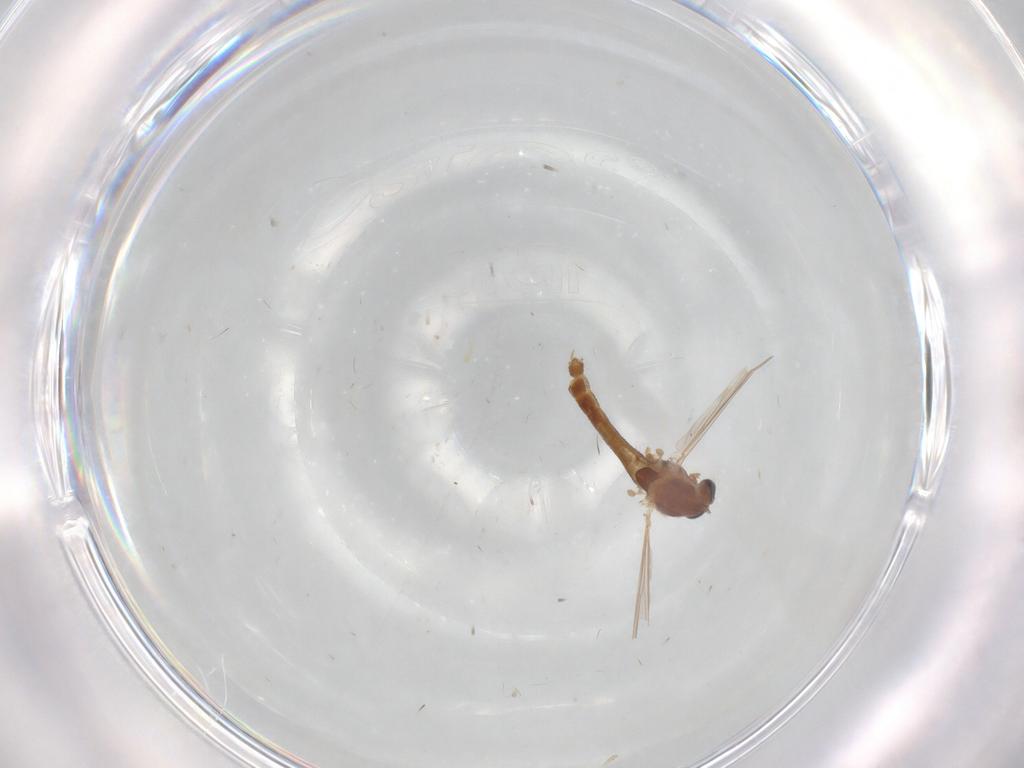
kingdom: Animalia
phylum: Arthropoda
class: Insecta
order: Diptera
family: Chironomidae
